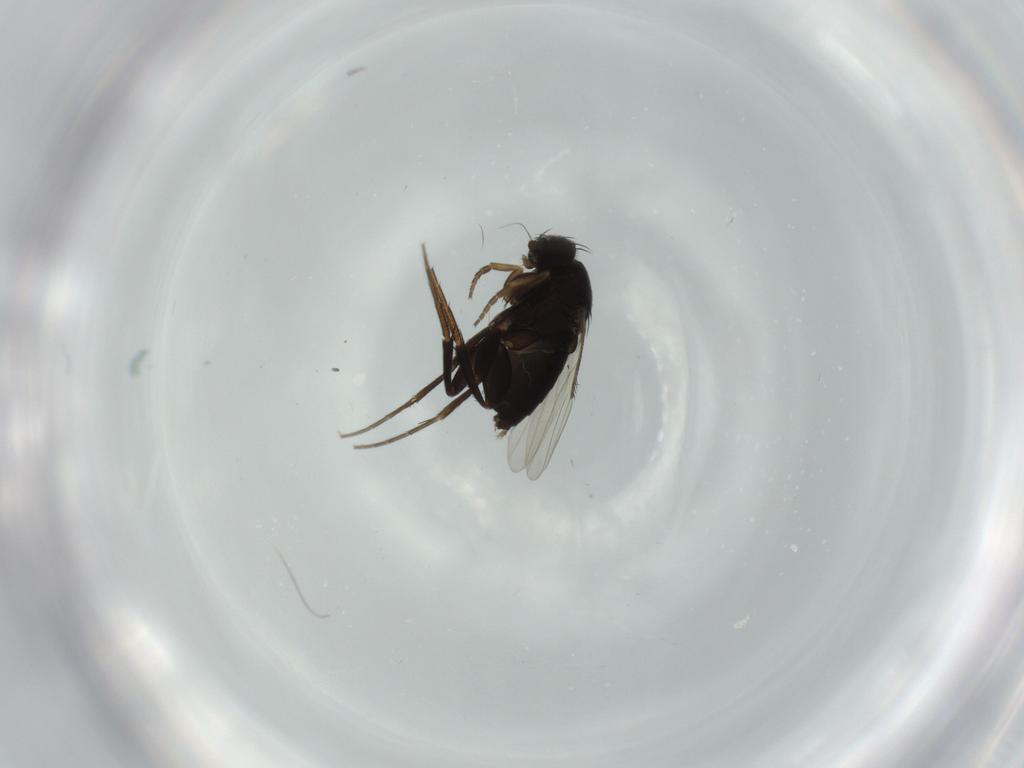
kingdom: Animalia
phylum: Arthropoda
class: Insecta
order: Diptera
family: Phoridae
